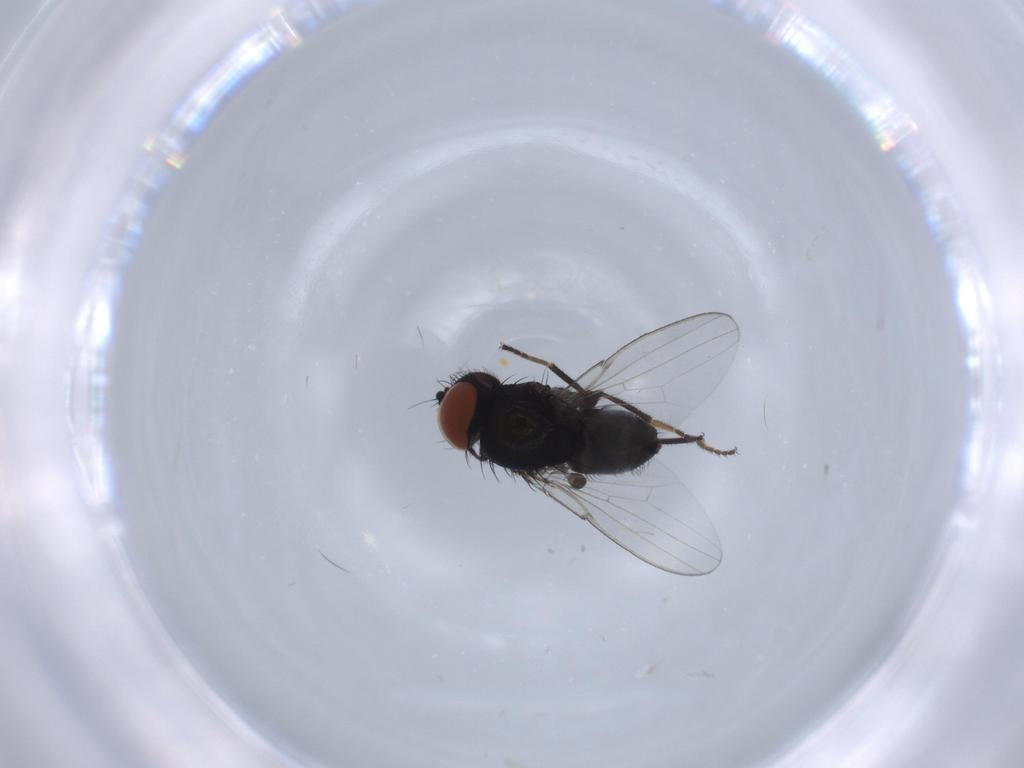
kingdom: Animalia
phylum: Arthropoda
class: Insecta
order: Diptera
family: Milichiidae
